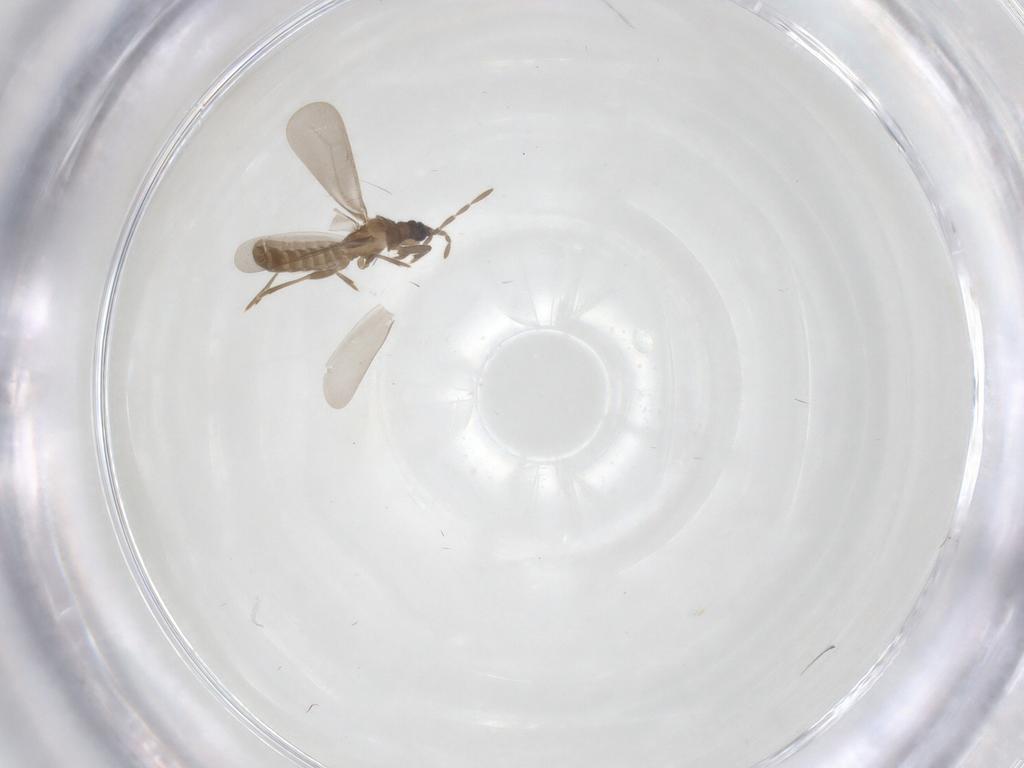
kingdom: Animalia
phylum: Arthropoda
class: Insecta
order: Hemiptera
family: Enicocephalidae
